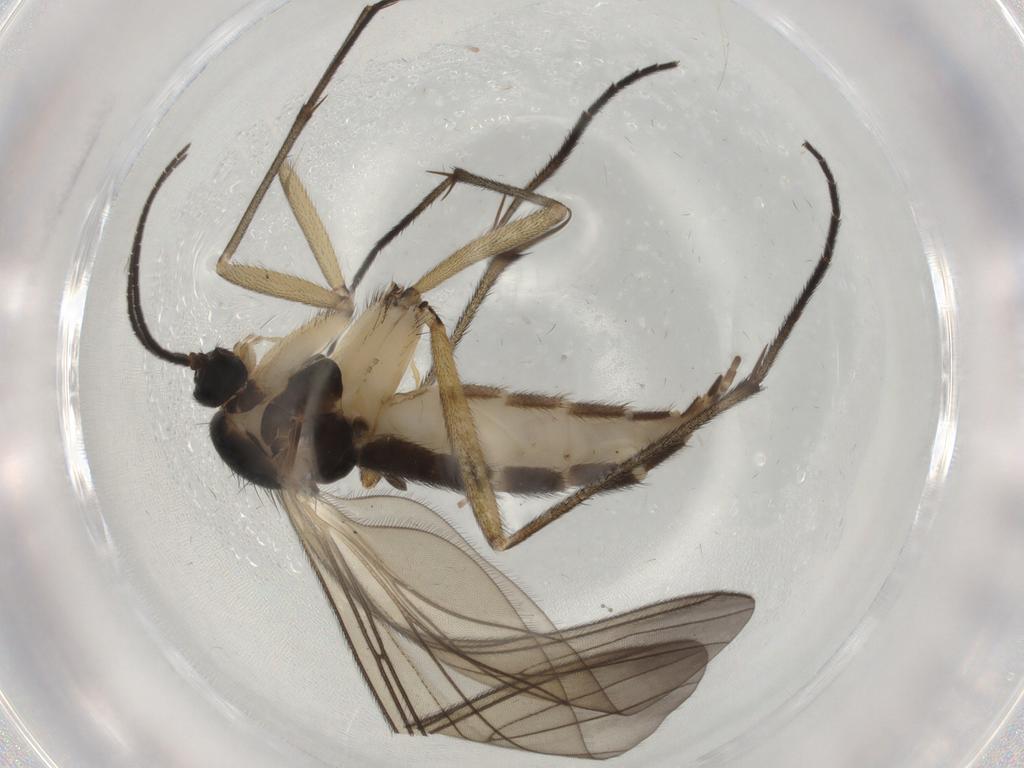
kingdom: Animalia
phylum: Arthropoda
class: Insecta
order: Diptera
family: Sciaridae
